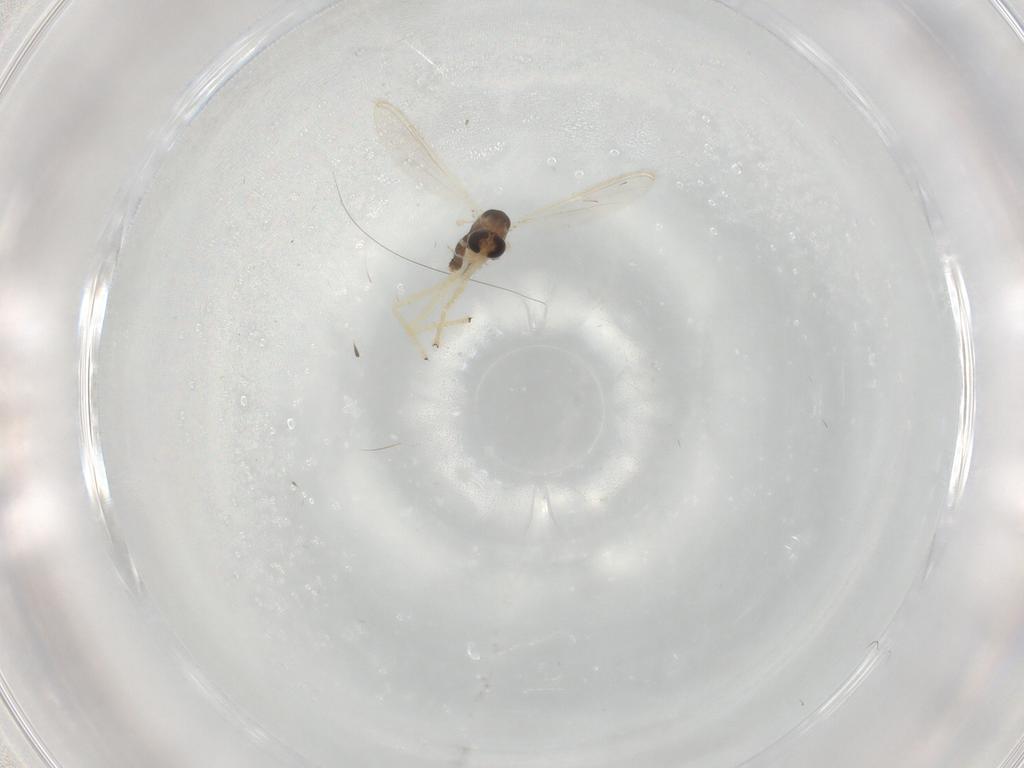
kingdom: Animalia
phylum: Arthropoda
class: Insecta
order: Diptera
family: Chironomidae
